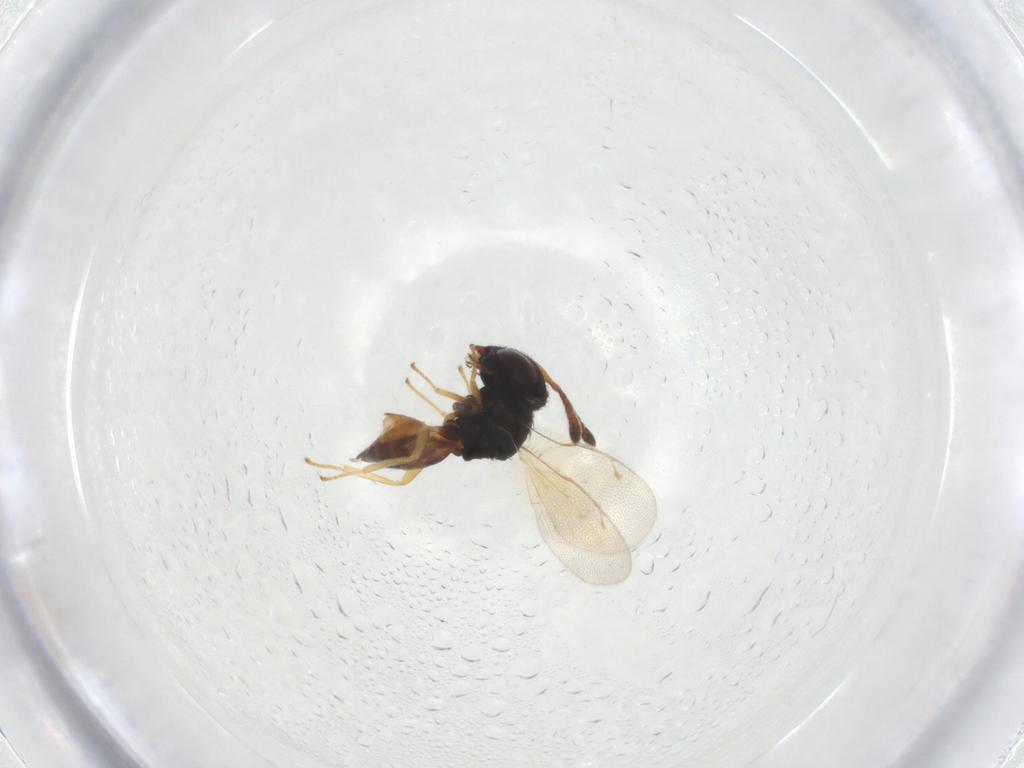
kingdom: Animalia
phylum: Arthropoda
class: Insecta
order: Hymenoptera
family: Pteromalidae
